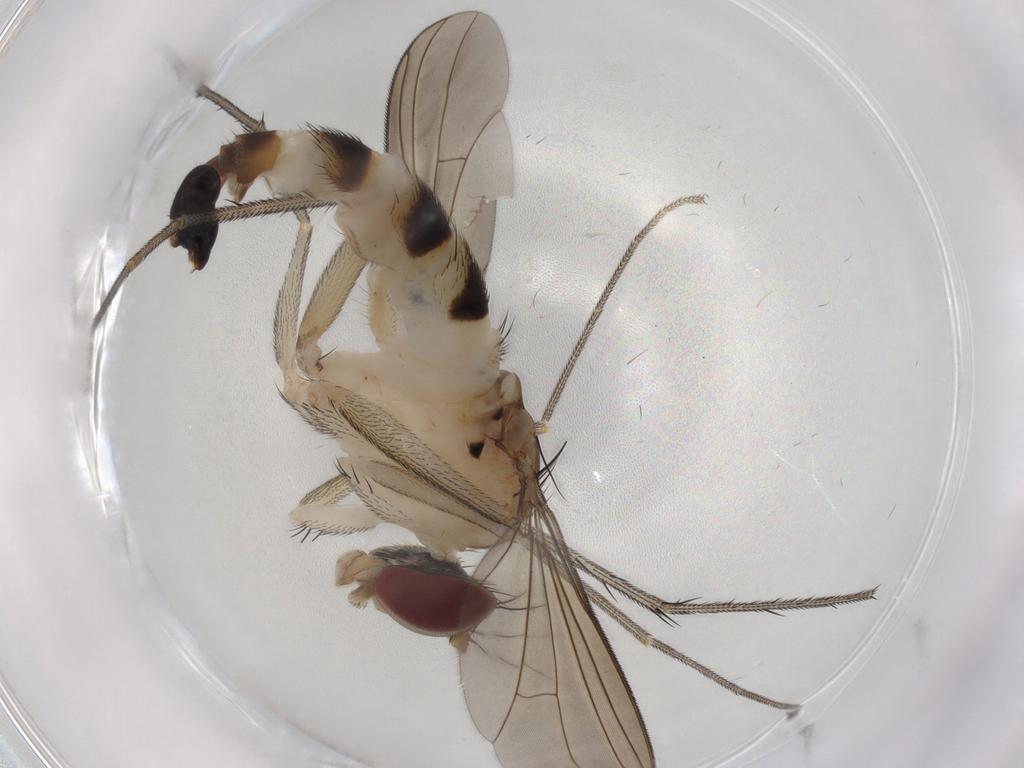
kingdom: Animalia
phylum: Arthropoda
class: Insecta
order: Diptera
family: Dolichopodidae
